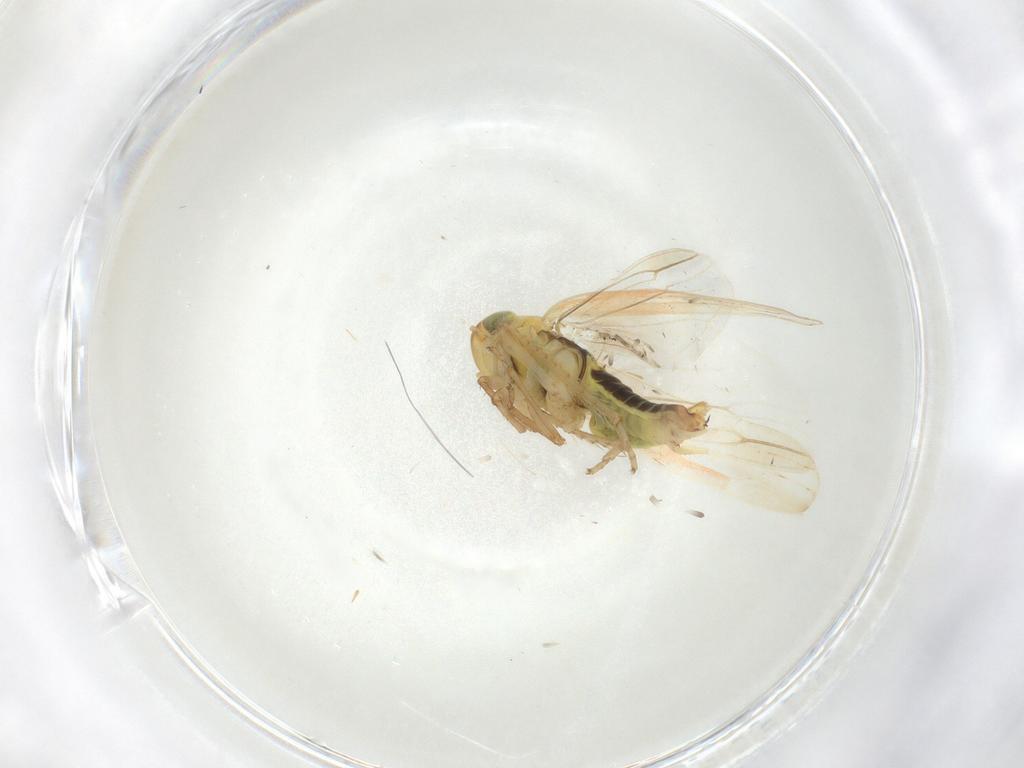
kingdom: Animalia
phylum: Arthropoda
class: Insecta
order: Hemiptera
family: Cicadellidae
